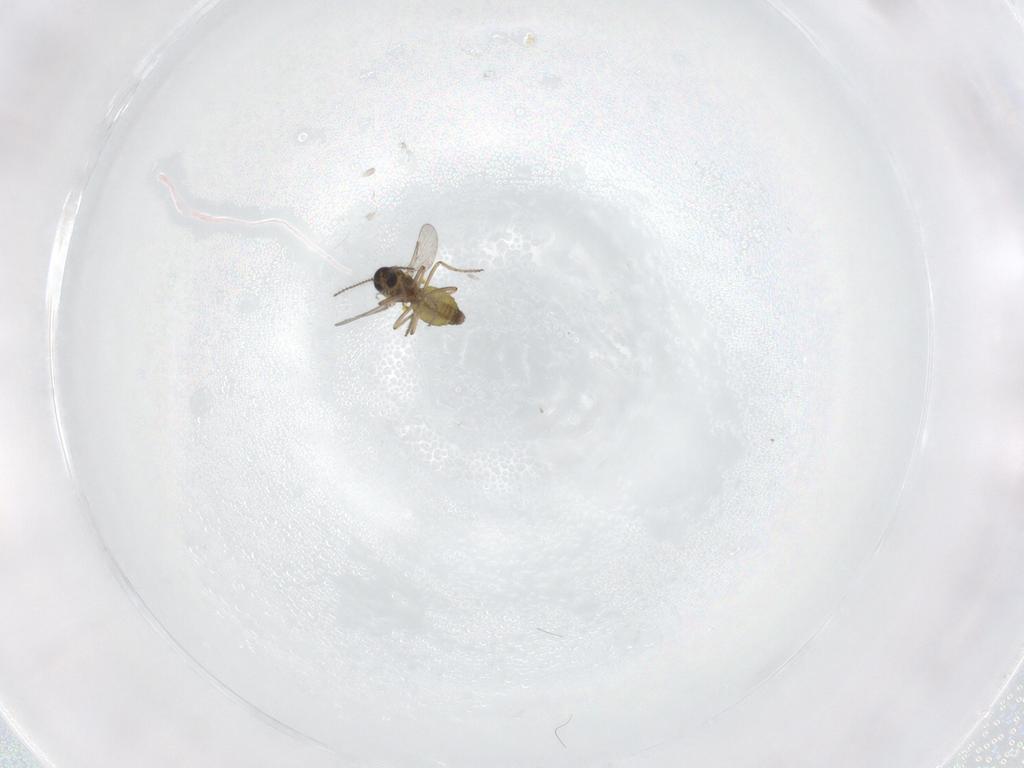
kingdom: Animalia
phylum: Arthropoda
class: Insecta
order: Diptera
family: Ceratopogonidae
